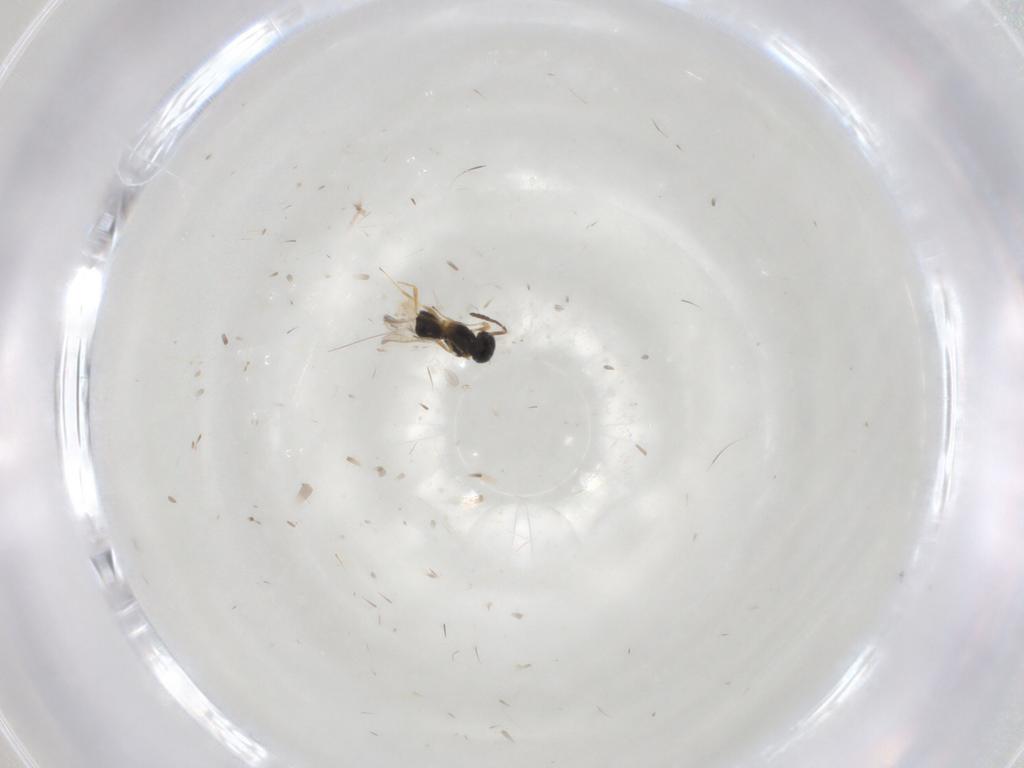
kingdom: Animalia
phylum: Arthropoda
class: Insecta
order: Hymenoptera
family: Scelionidae
